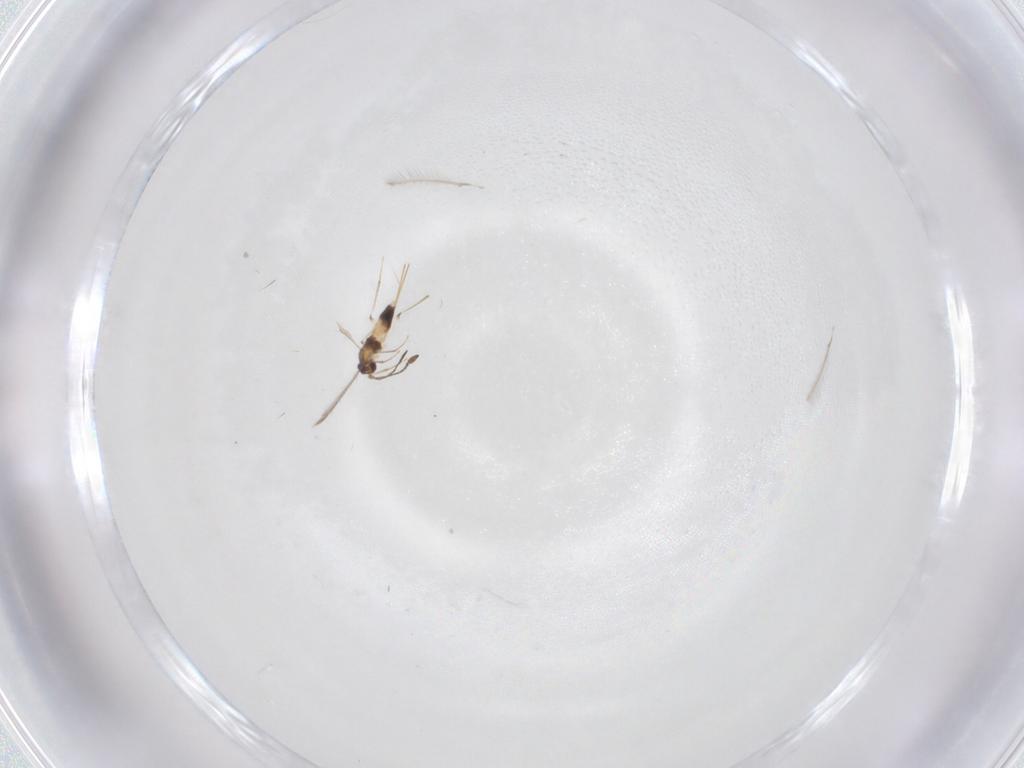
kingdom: Animalia
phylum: Arthropoda
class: Insecta
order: Hymenoptera
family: Mymaridae
